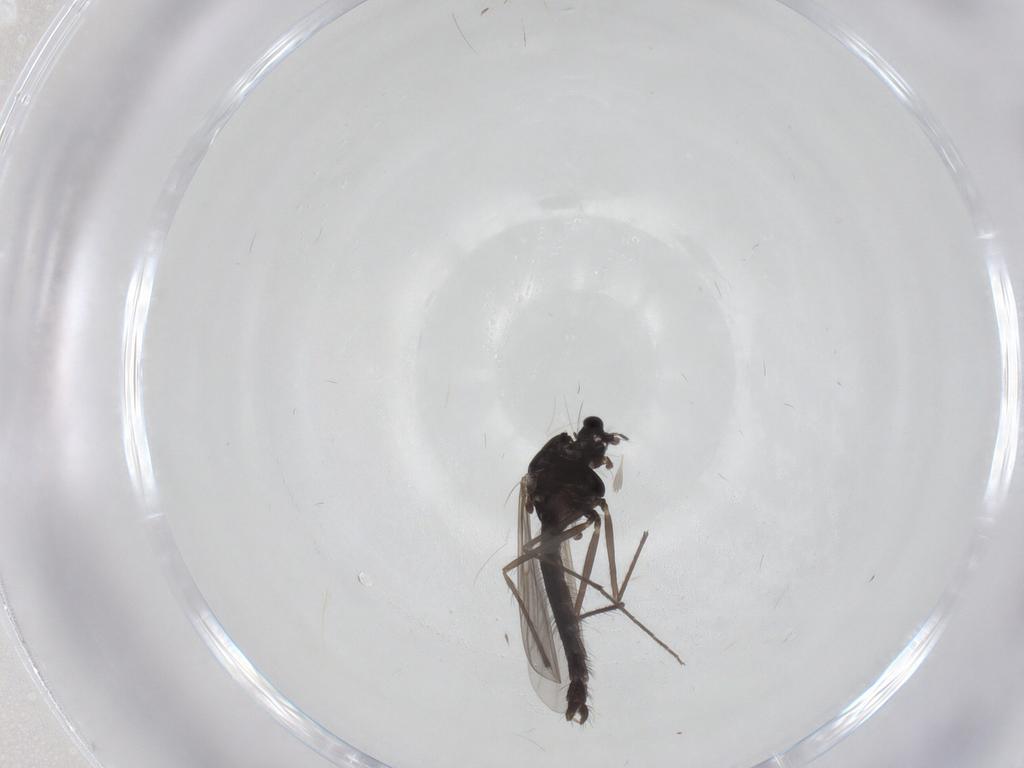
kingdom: Animalia
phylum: Arthropoda
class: Insecta
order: Diptera
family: Chironomidae
